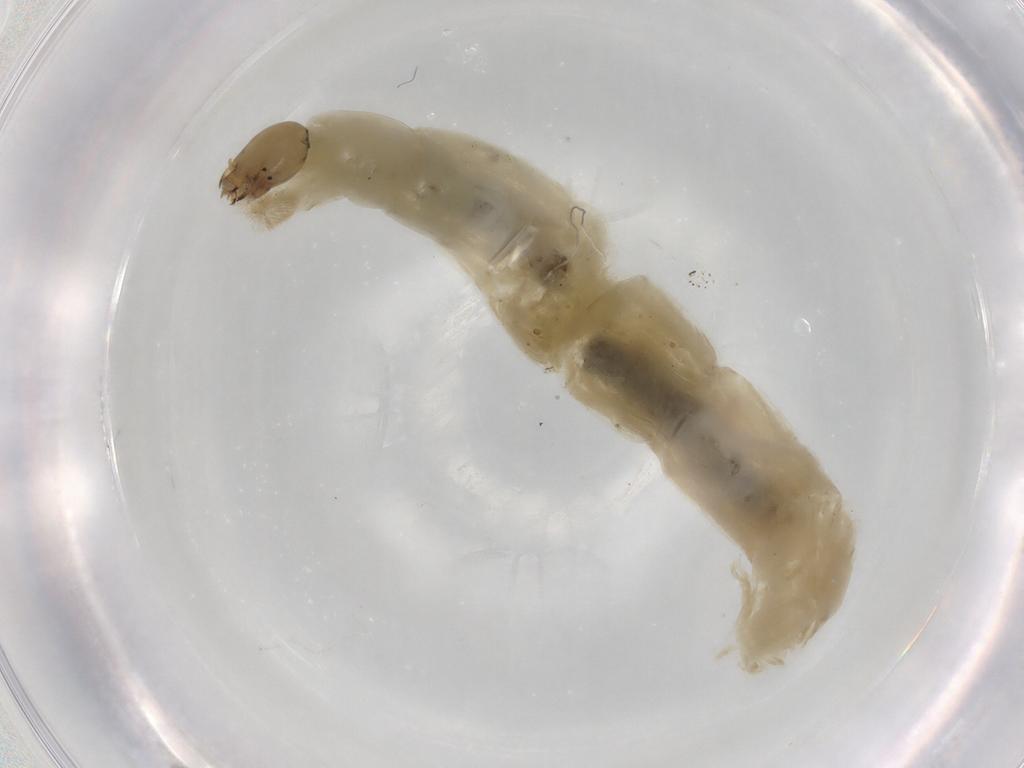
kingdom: Animalia
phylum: Arthropoda
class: Insecta
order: Diptera
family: Chironomidae
